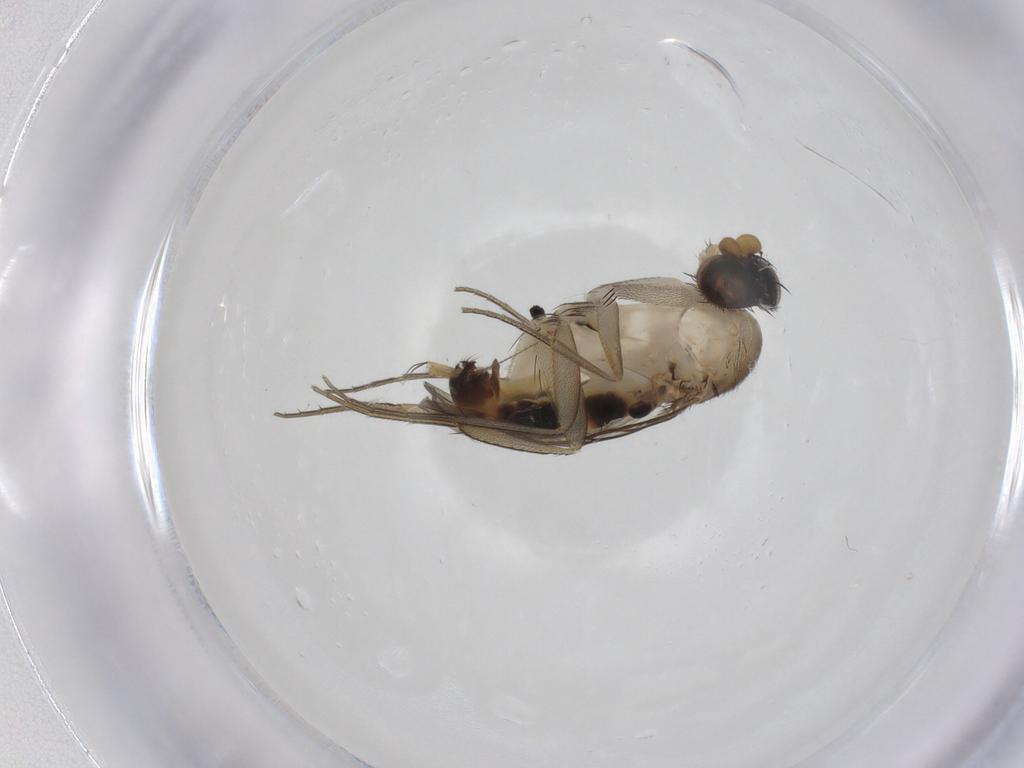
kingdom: Animalia
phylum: Arthropoda
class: Insecta
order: Diptera
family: Phoridae
